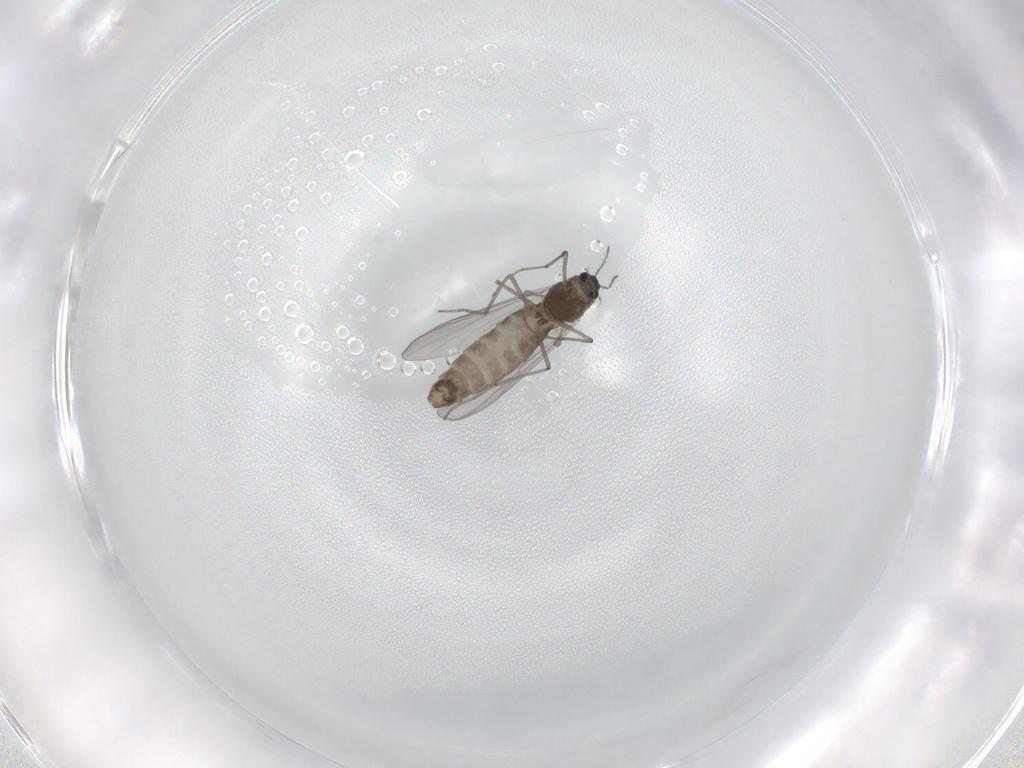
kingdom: Animalia
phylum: Arthropoda
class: Insecta
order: Diptera
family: Chironomidae
